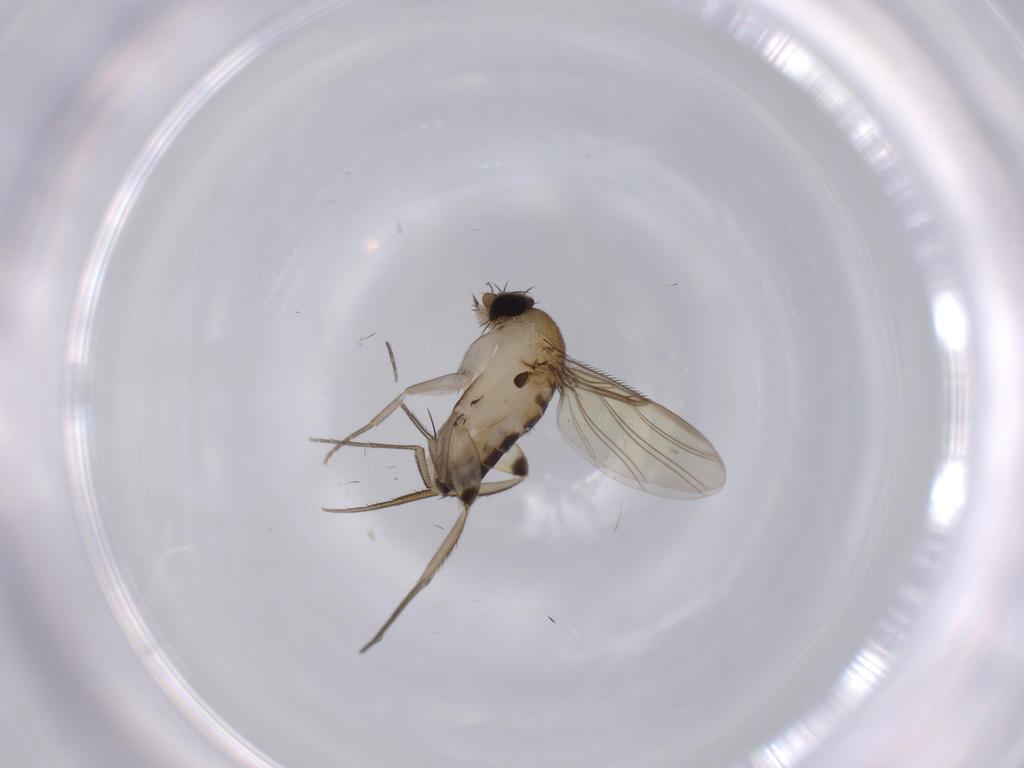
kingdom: Animalia
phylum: Arthropoda
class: Insecta
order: Diptera
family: Phoridae
